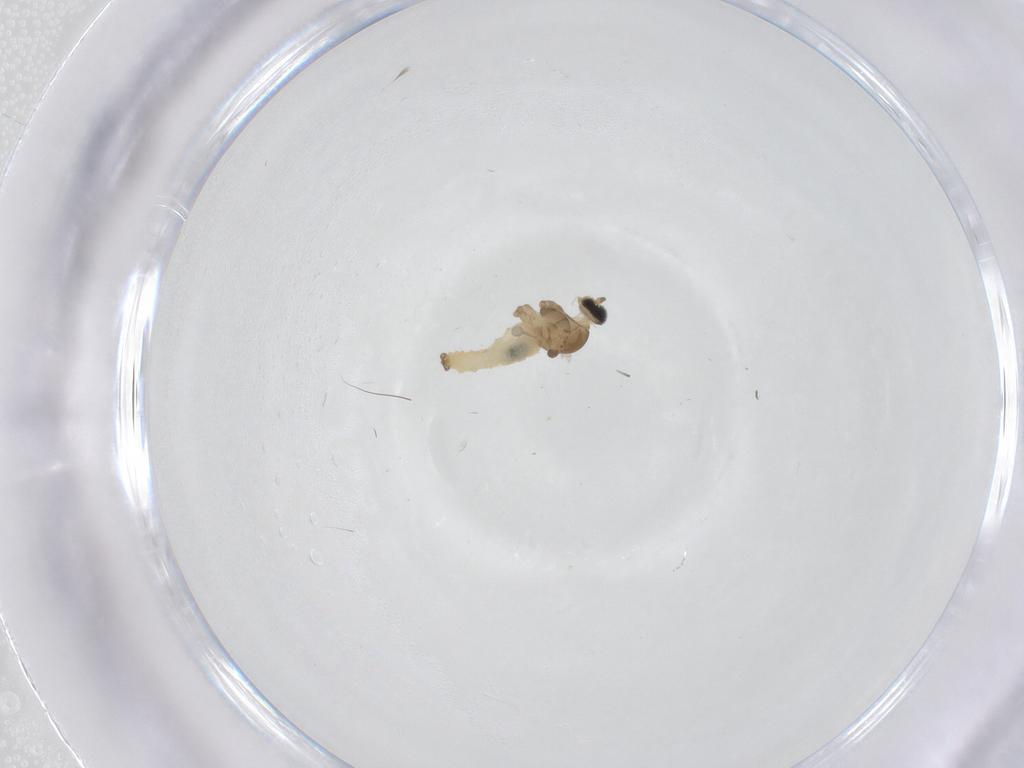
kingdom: Animalia
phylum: Arthropoda
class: Insecta
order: Diptera
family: Cecidomyiidae
